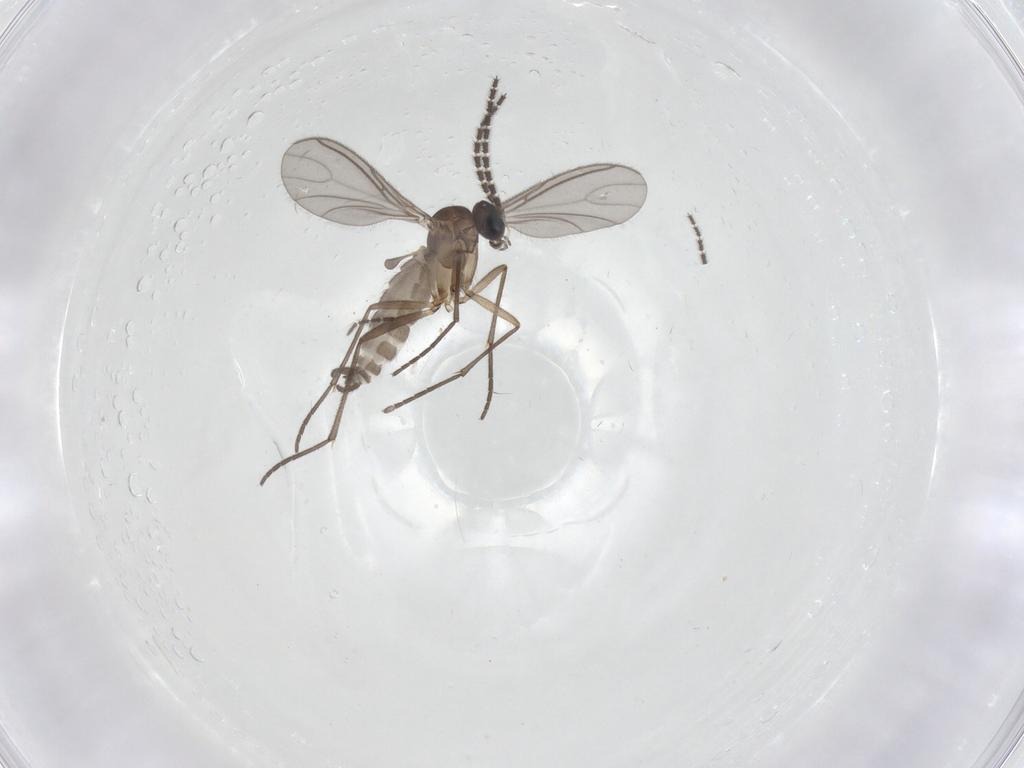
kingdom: Animalia
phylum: Arthropoda
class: Insecta
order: Diptera
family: Sciaridae
